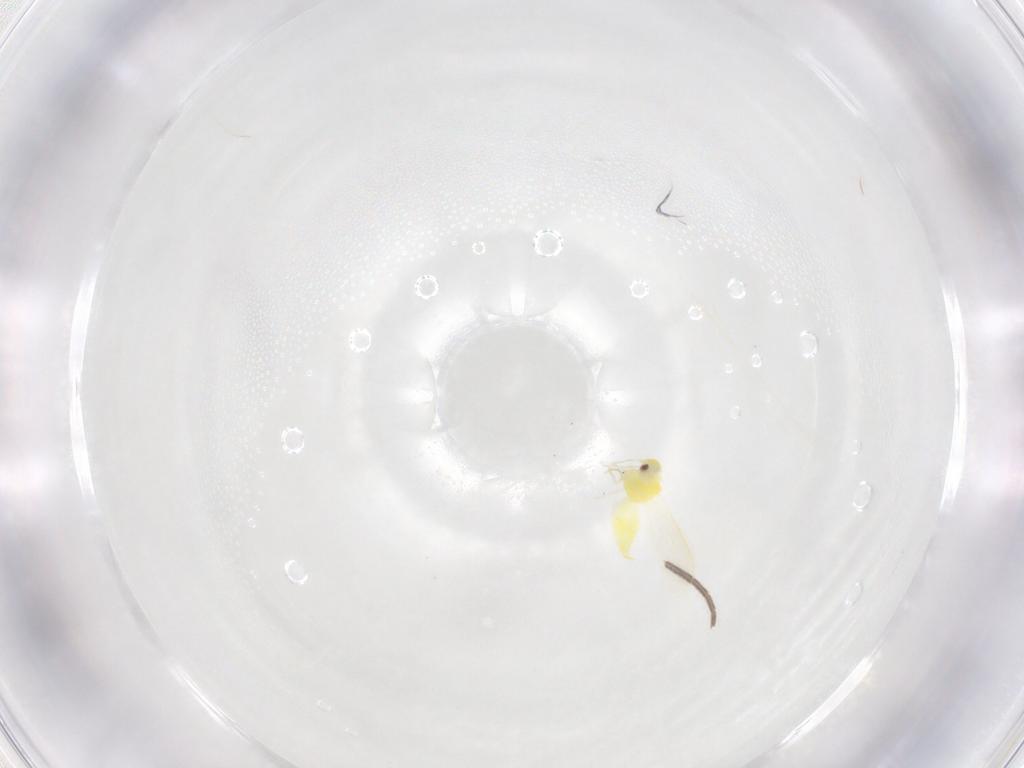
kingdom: Animalia
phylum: Arthropoda
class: Insecta
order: Hemiptera
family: Aleyrodidae
